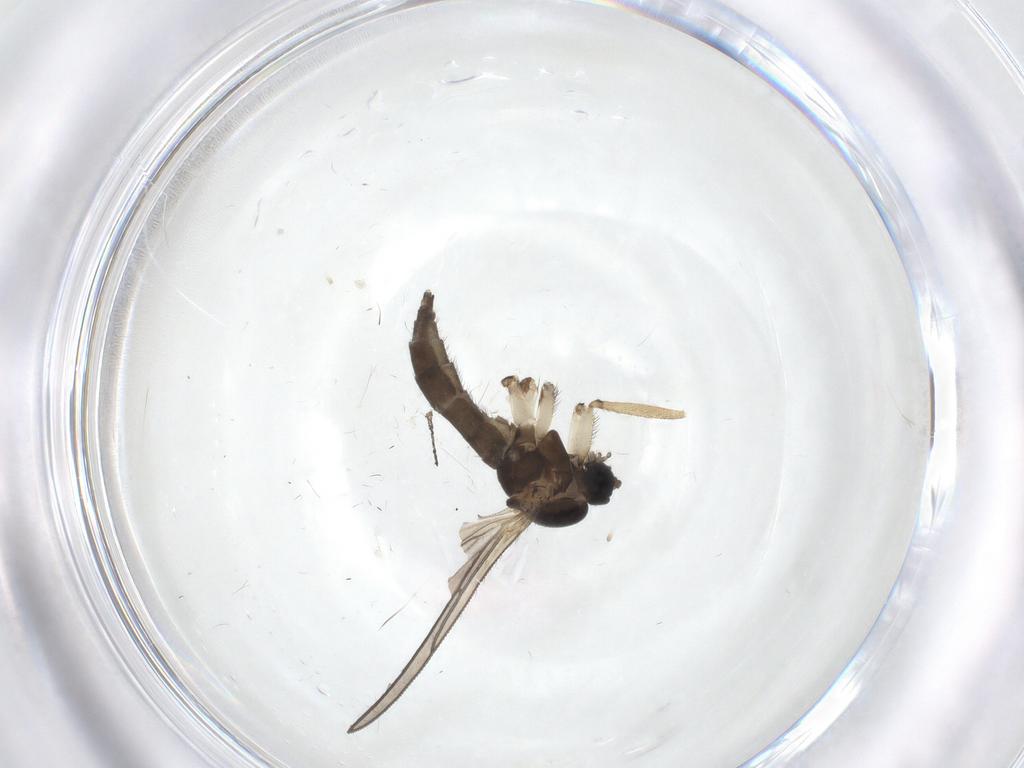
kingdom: Animalia
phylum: Arthropoda
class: Insecta
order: Diptera
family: Sciaridae
